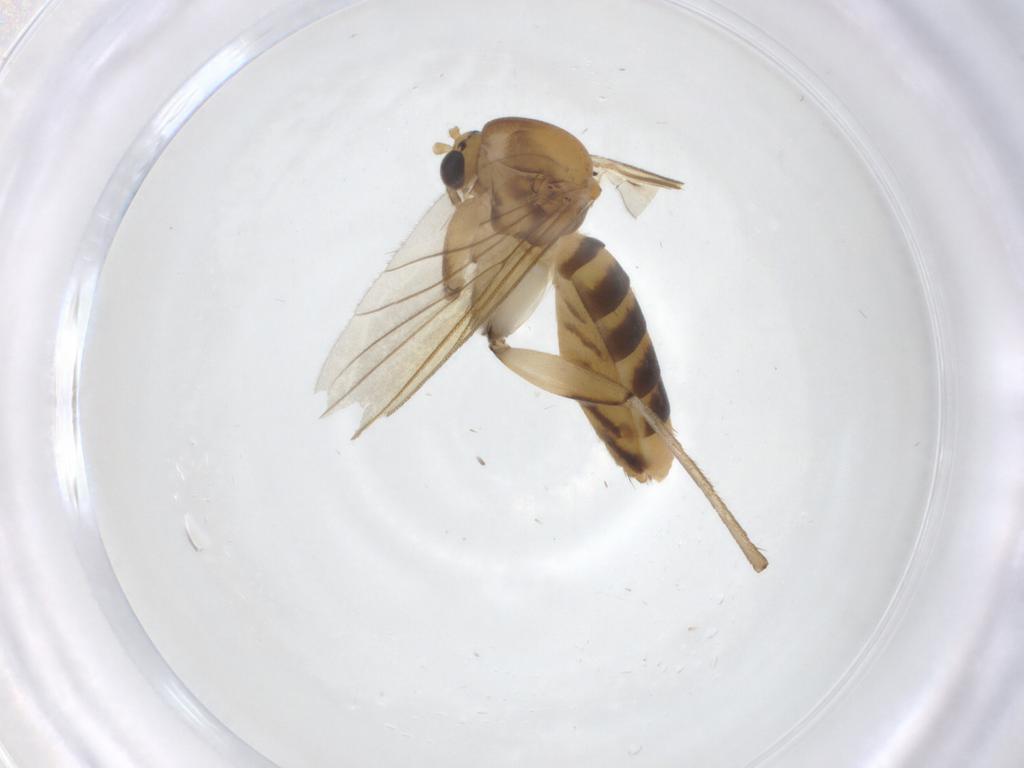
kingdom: Animalia
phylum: Arthropoda
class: Insecta
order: Diptera
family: Mycetophilidae
